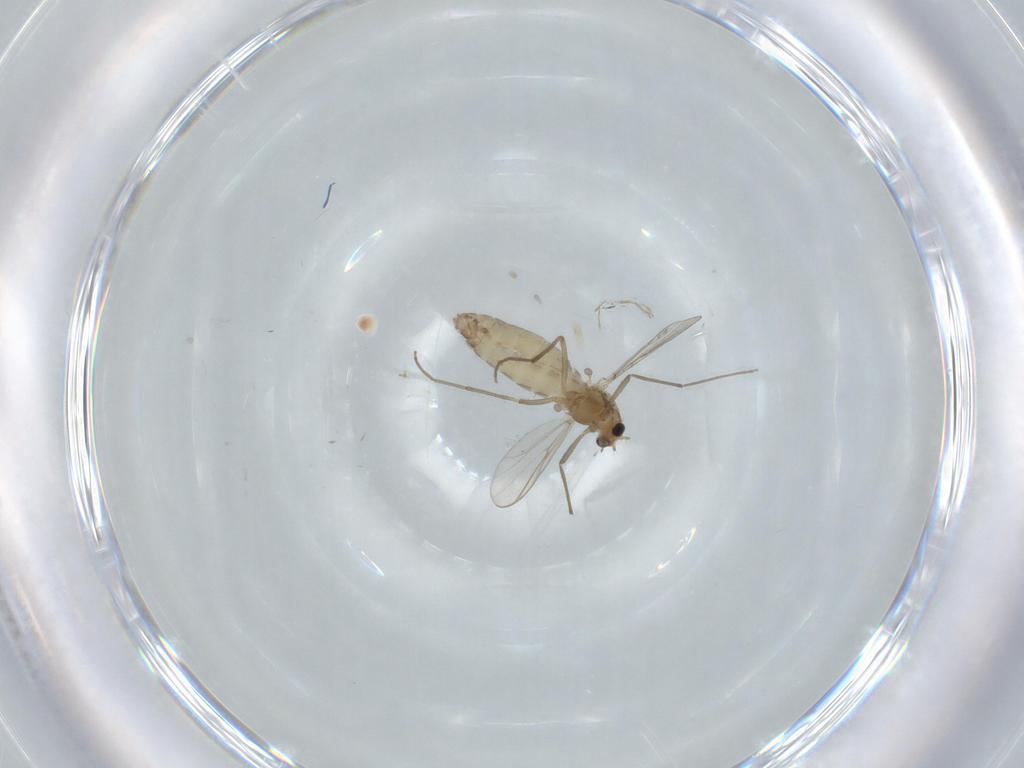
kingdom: Animalia
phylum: Arthropoda
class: Insecta
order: Diptera
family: Chironomidae
